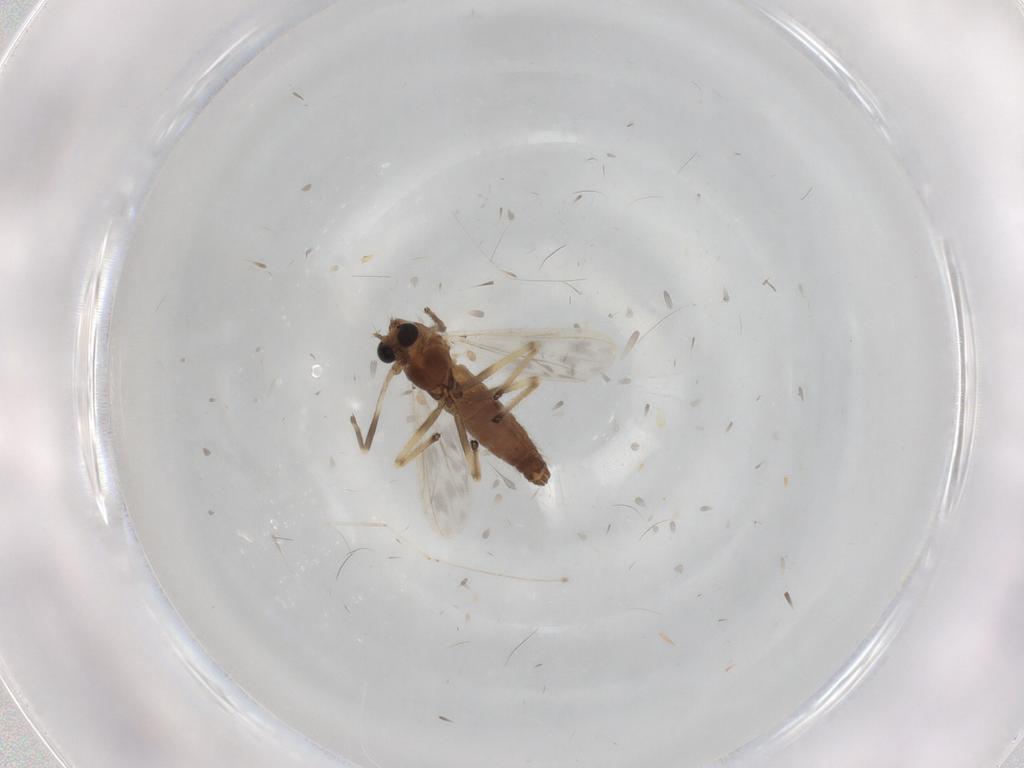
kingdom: Animalia
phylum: Arthropoda
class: Insecta
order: Diptera
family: Chironomidae
